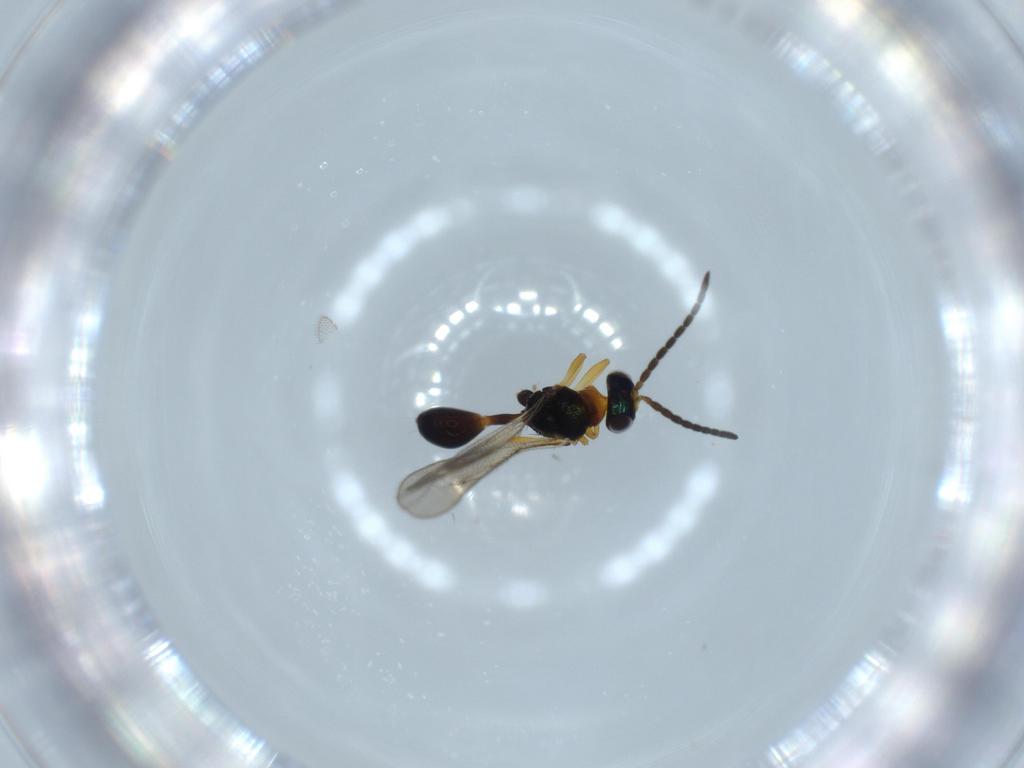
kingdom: Animalia
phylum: Arthropoda
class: Insecta
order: Hymenoptera
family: Diparidae
